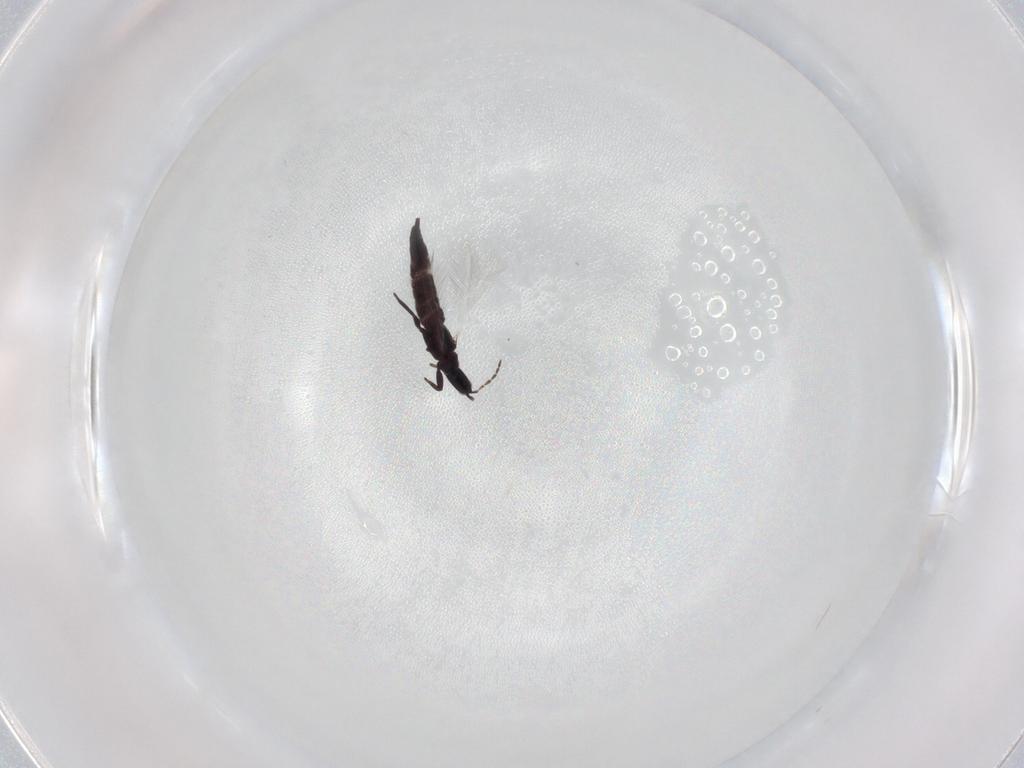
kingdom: Animalia
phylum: Arthropoda
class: Insecta
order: Thysanoptera
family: Phlaeothripidae
